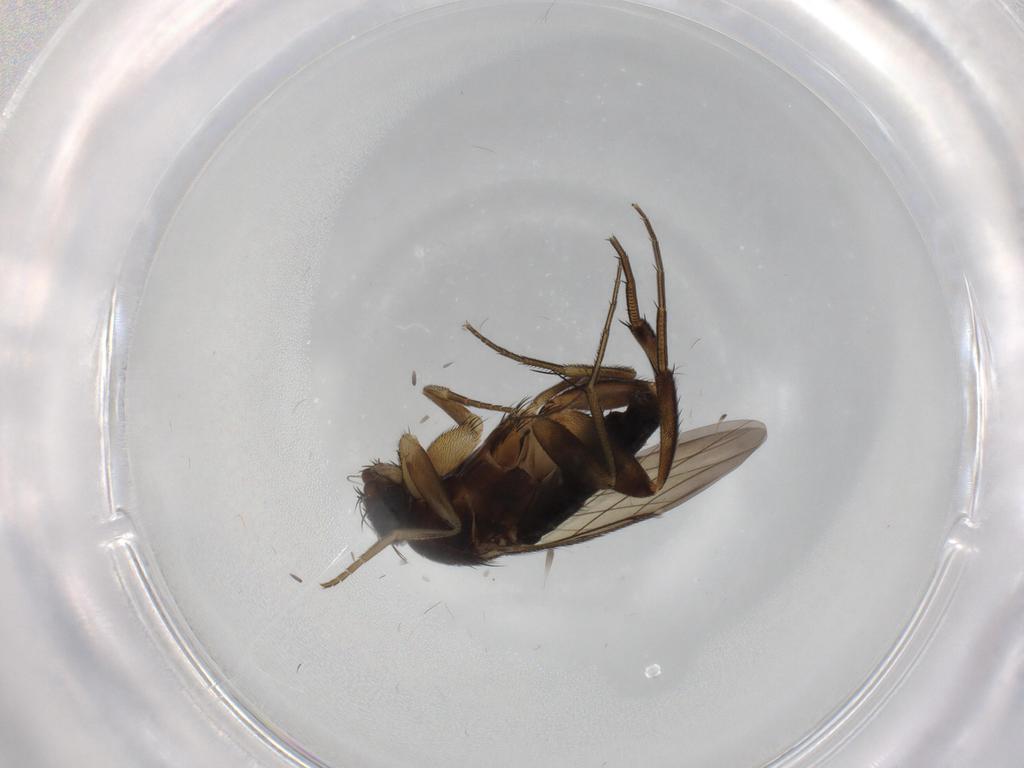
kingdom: Animalia
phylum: Arthropoda
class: Insecta
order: Diptera
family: Phoridae
